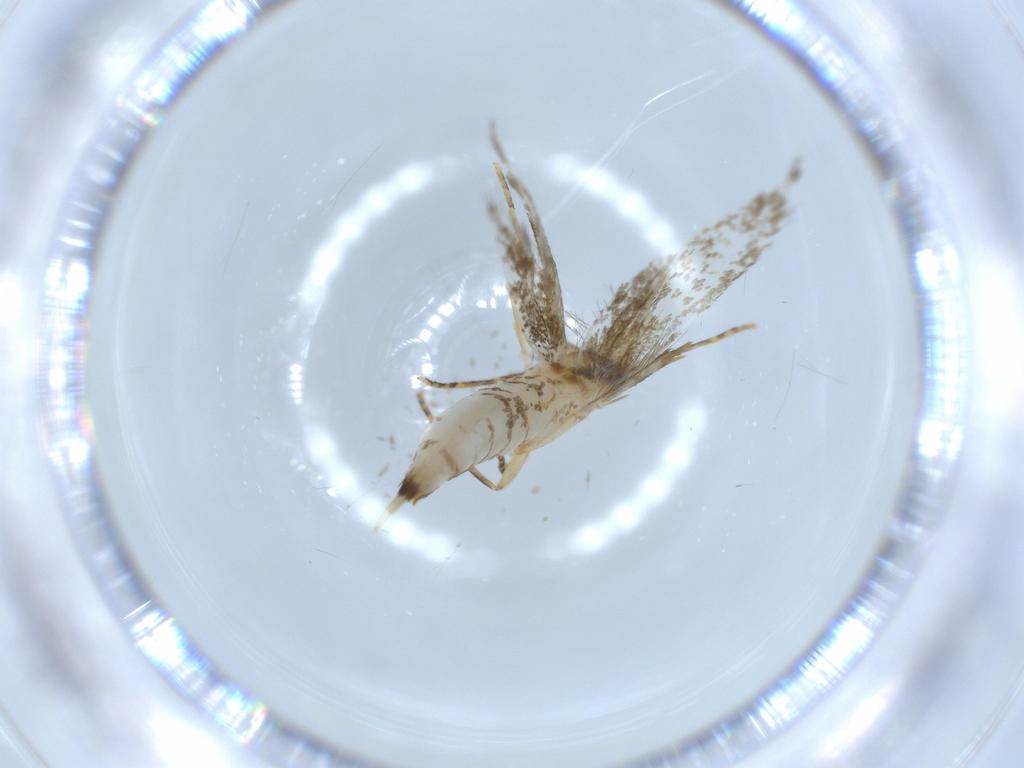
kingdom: Animalia
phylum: Arthropoda
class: Insecta
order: Lepidoptera
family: Tineidae
